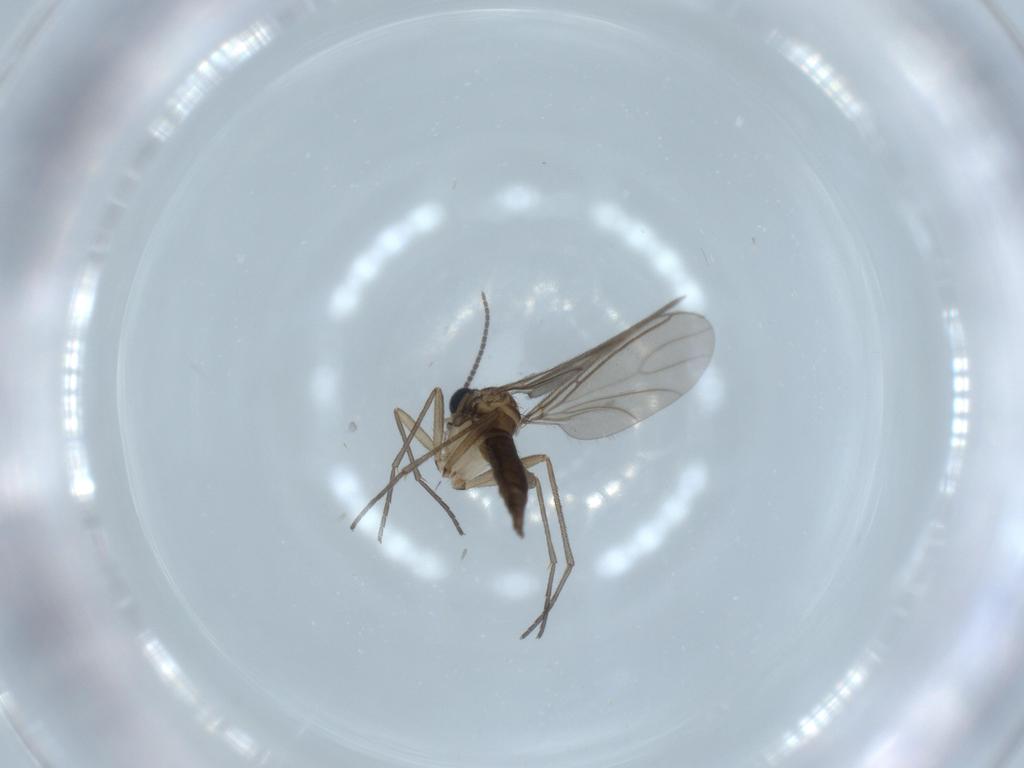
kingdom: Animalia
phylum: Arthropoda
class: Insecta
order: Diptera
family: Sciaridae
